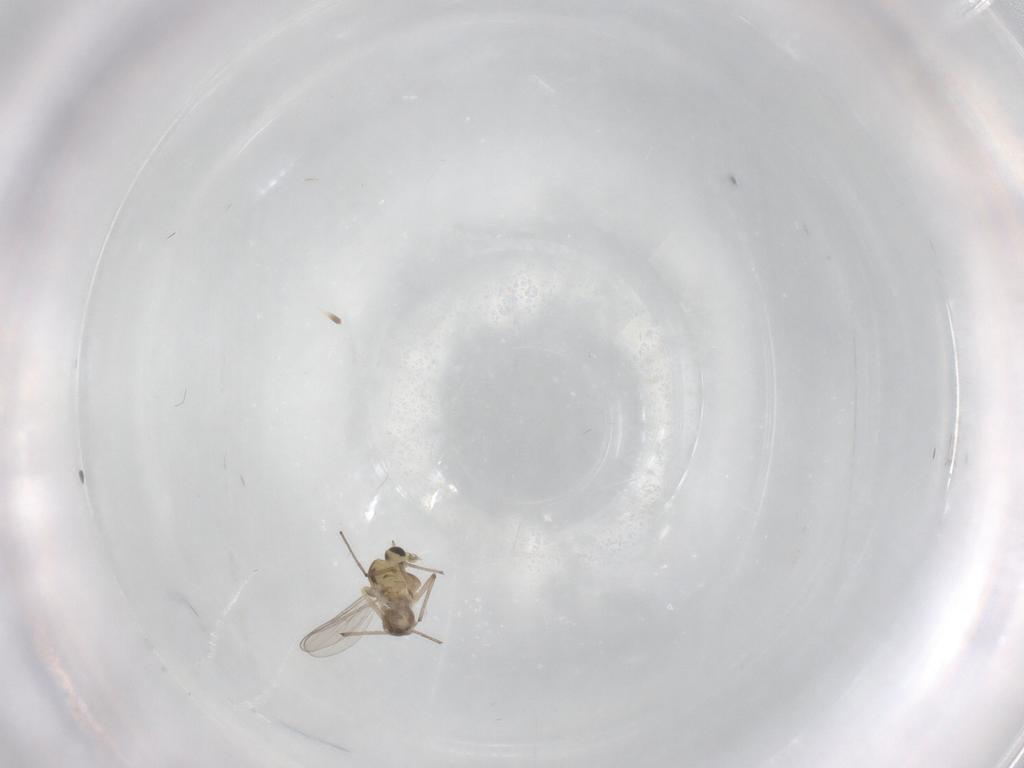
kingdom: Animalia
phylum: Arthropoda
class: Insecta
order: Diptera
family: Chironomidae
